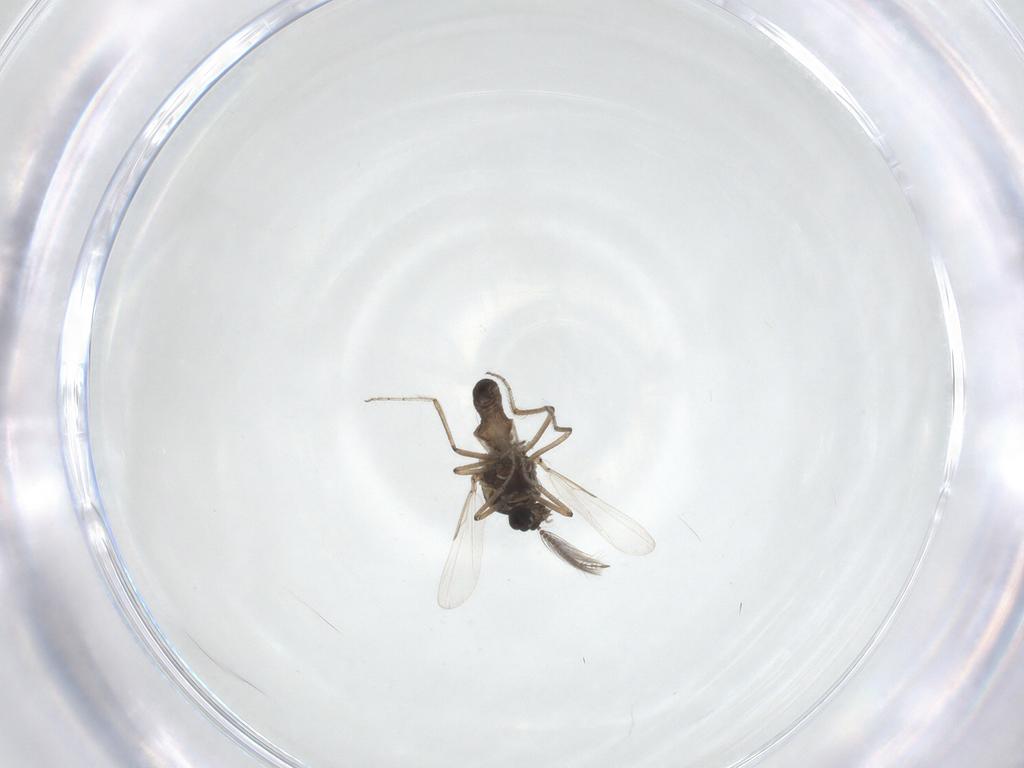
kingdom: Animalia
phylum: Arthropoda
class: Insecta
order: Diptera
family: Ceratopogonidae
